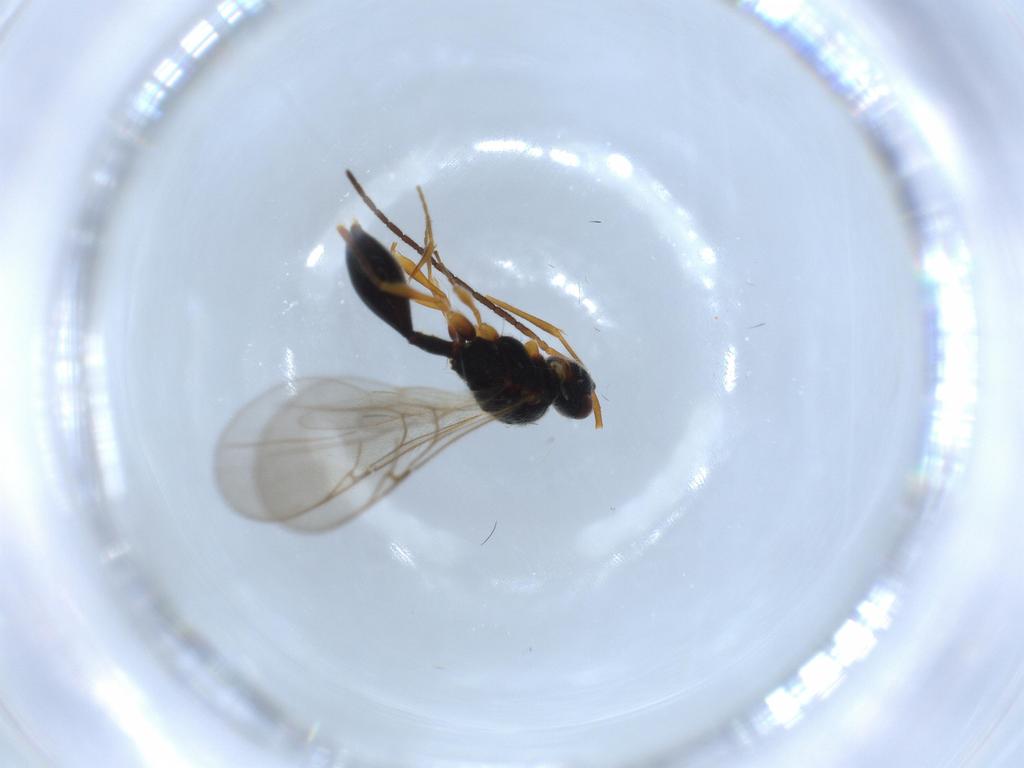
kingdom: Animalia
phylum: Arthropoda
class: Insecta
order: Hymenoptera
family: Diapriidae
